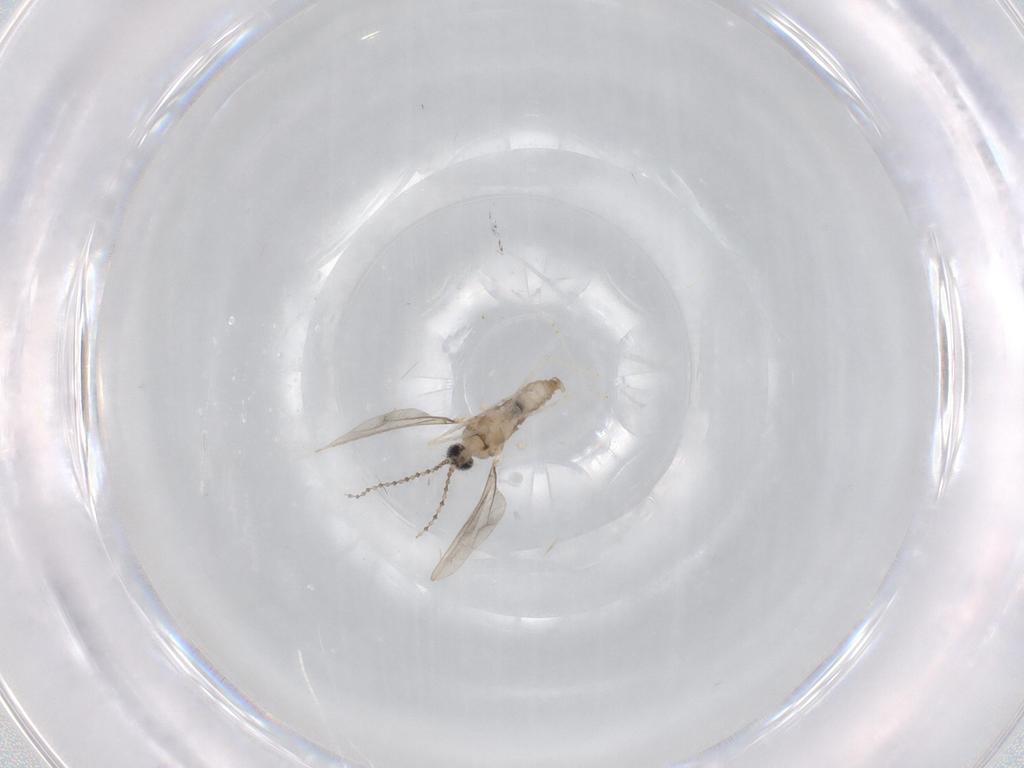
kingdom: Animalia
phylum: Arthropoda
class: Insecta
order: Diptera
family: Cecidomyiidae
